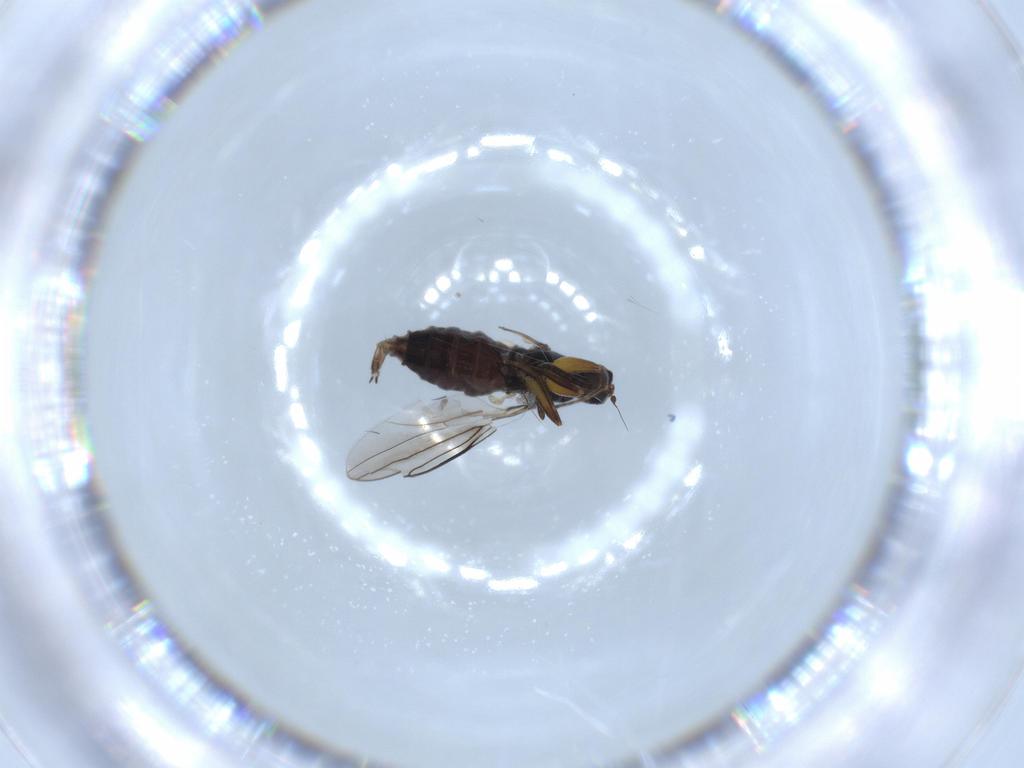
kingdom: Animalia
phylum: Arthropoda
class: Insecta
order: Diptera
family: Hybotidae
